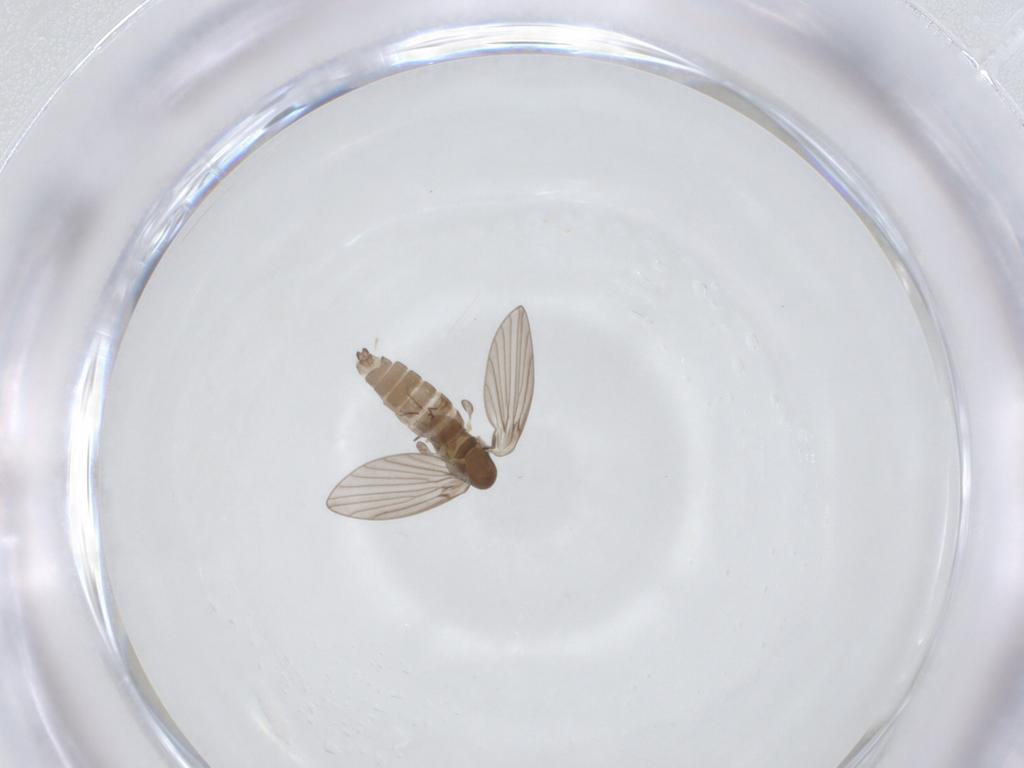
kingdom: Animalia
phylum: Arthropoda
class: Insecta
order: Diptera
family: Psychodidae
